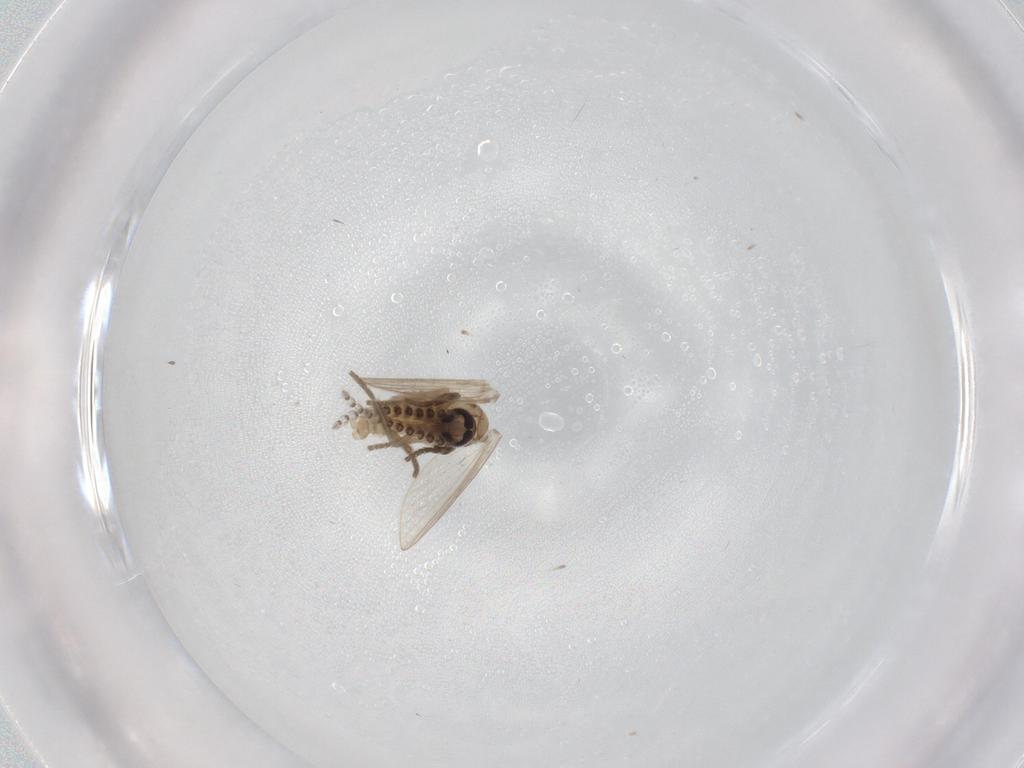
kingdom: Animalia
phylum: Arthropoda
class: Insecta
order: Diptera
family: Psychodidae
